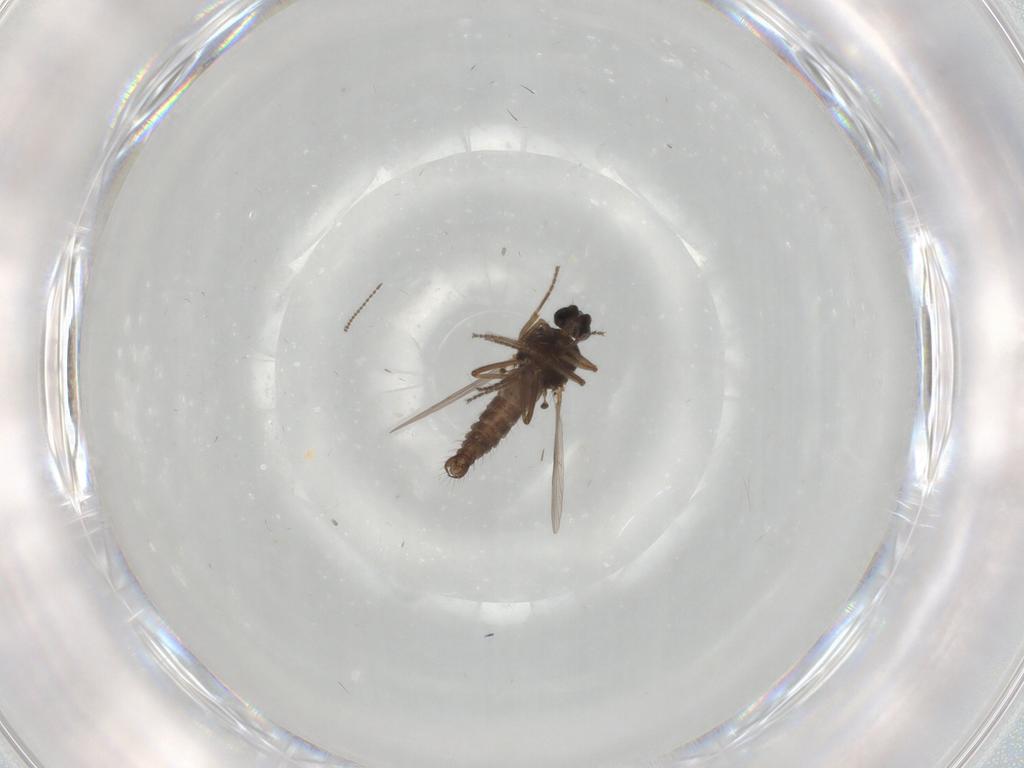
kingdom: Animalia
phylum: Arthropoda
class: Insecta
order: Diptera
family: Ceratopogonidae
